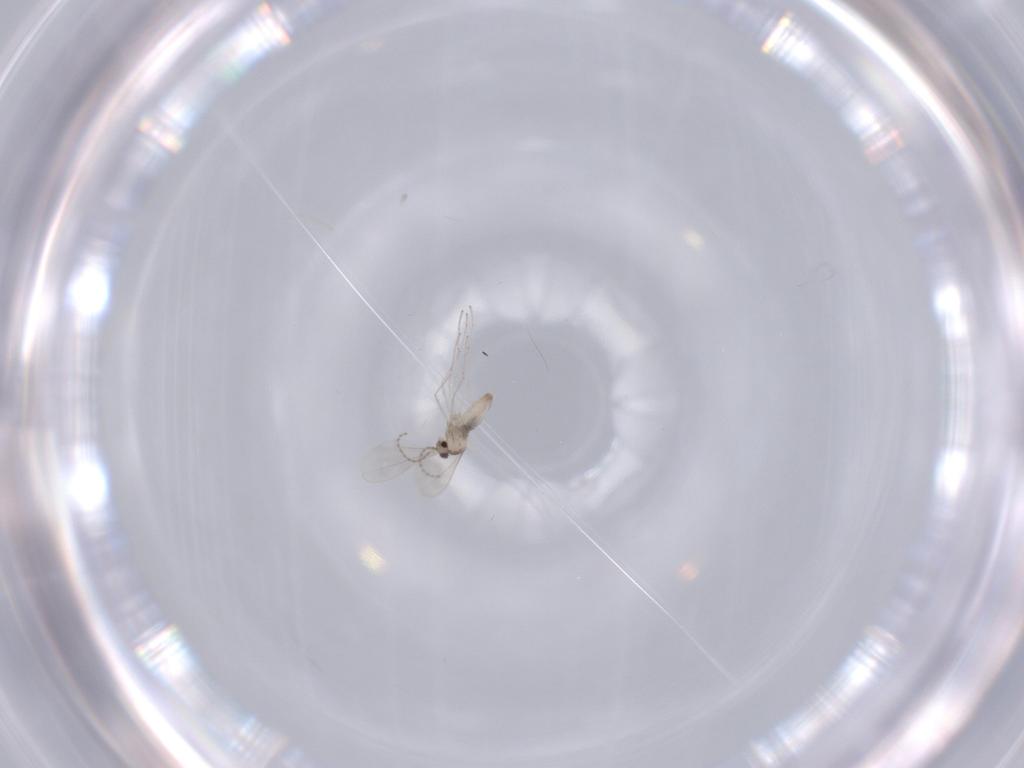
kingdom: Animalia
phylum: Arthropoda
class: Insecta
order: Diptera
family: Cecidomyiidae
